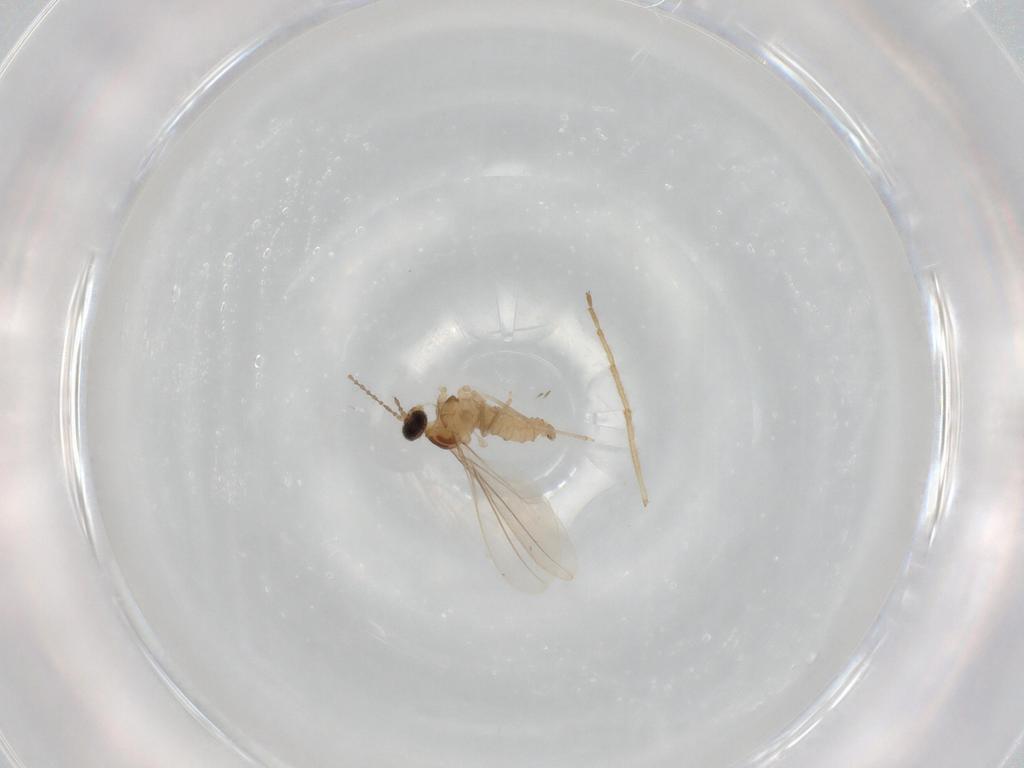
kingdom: Animalia
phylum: Arthropoda
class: Insecta
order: Diptera
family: Cecidomyiidae
